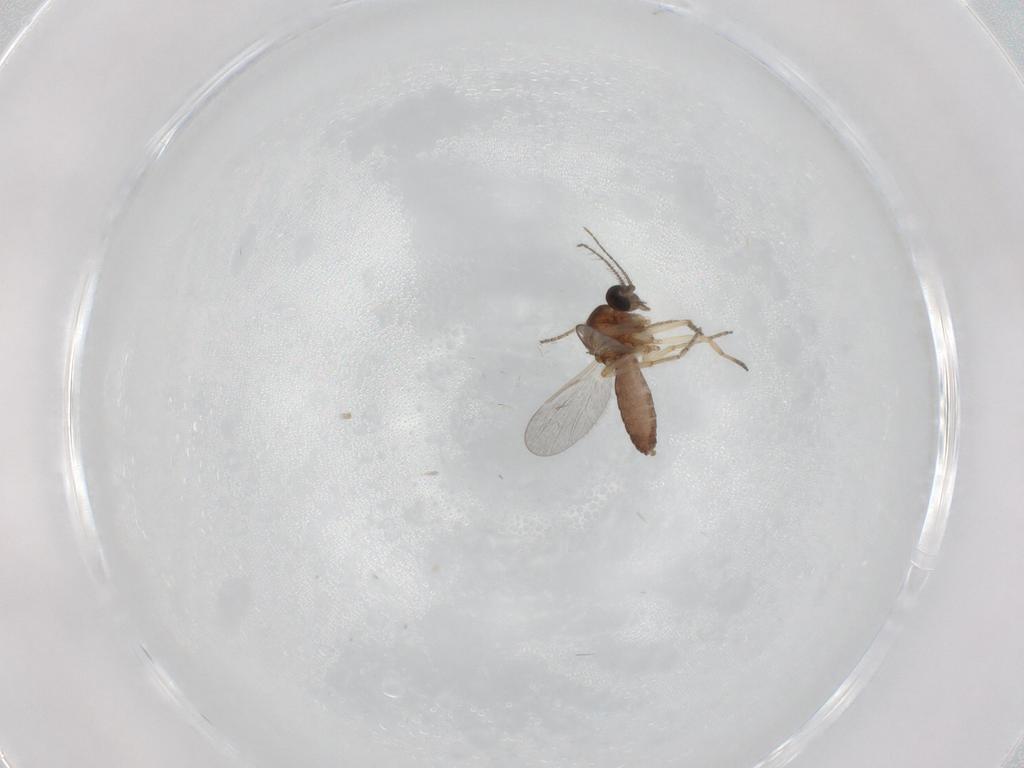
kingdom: Animalia
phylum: Arthropoda
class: Insecta
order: Diptera
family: Ceratopogonidae
